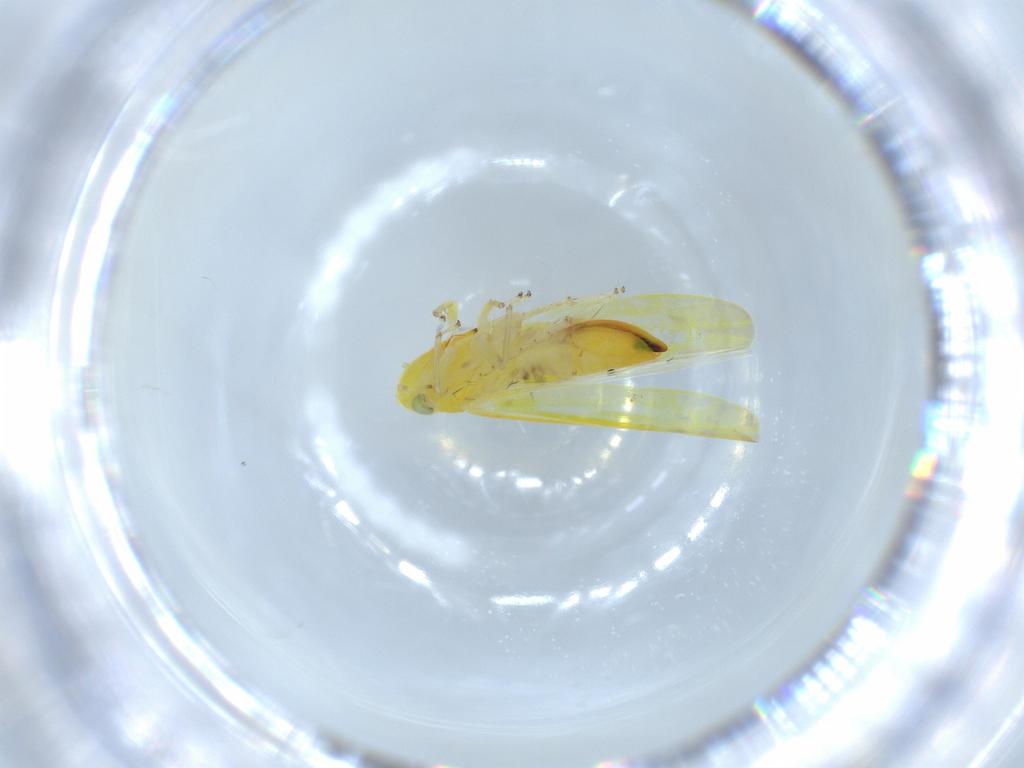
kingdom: Animalia
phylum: Arthropoda
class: Insecta
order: Hemiptera
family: Cicadellidae
